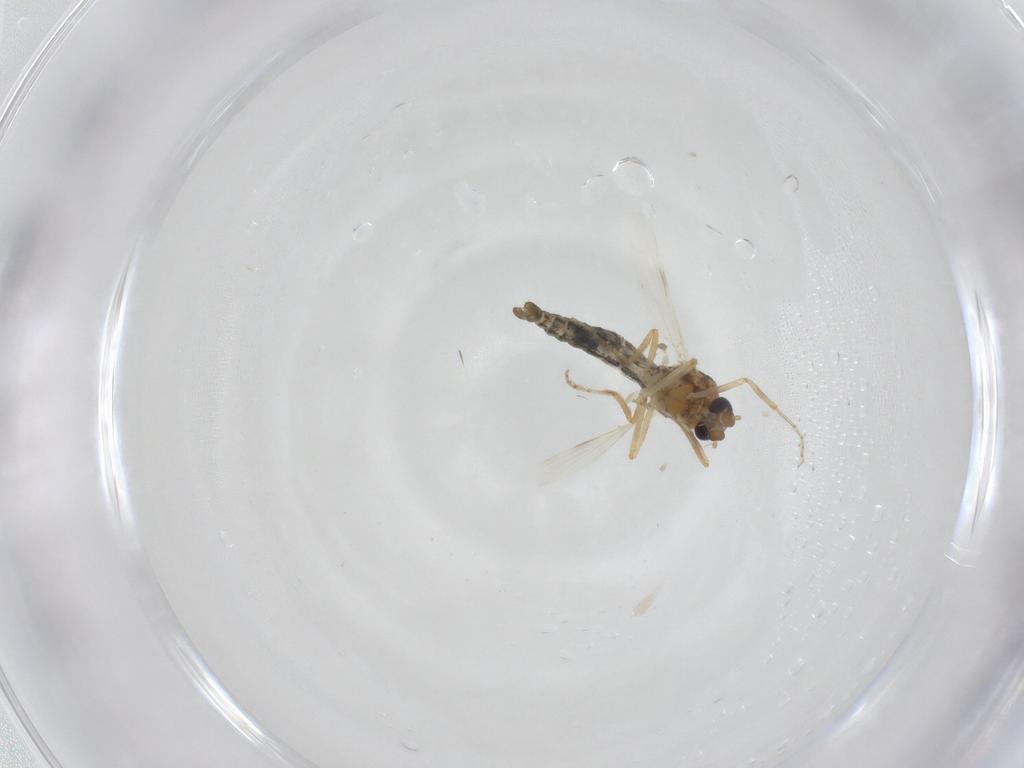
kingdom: Animalia
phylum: Arthropoda
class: Insecta
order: Diptera
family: Ceratopogonidae
